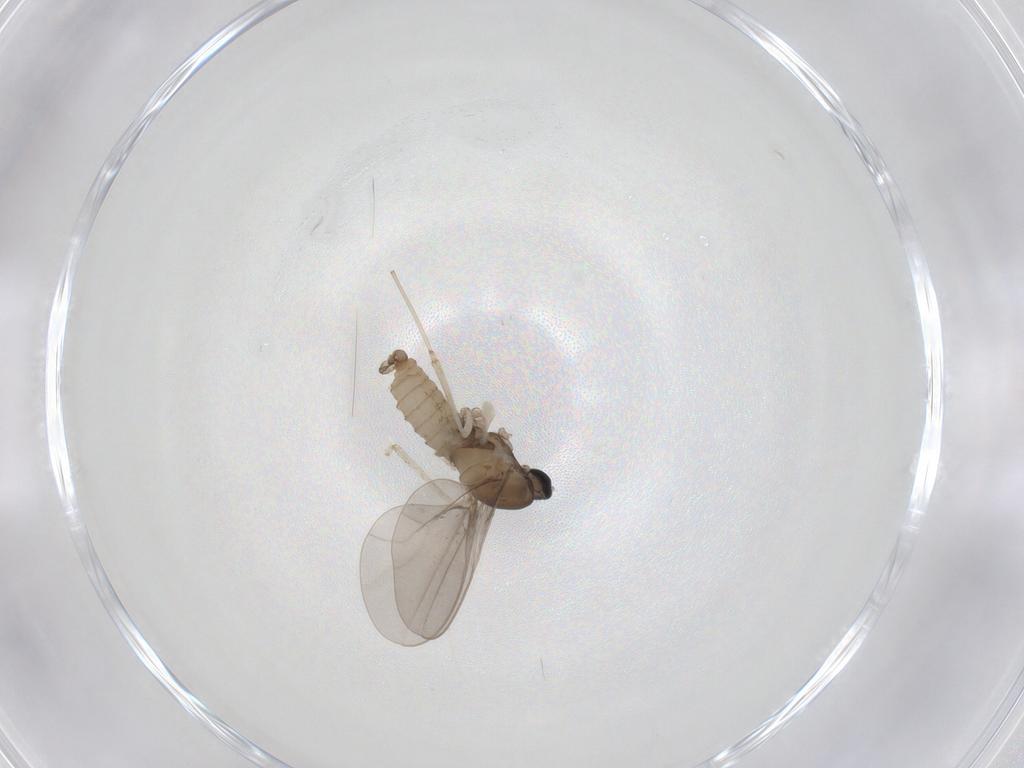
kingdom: Animalia
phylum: Arthropoda
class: Insecta
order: Diptera
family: Cecidomyiidae
